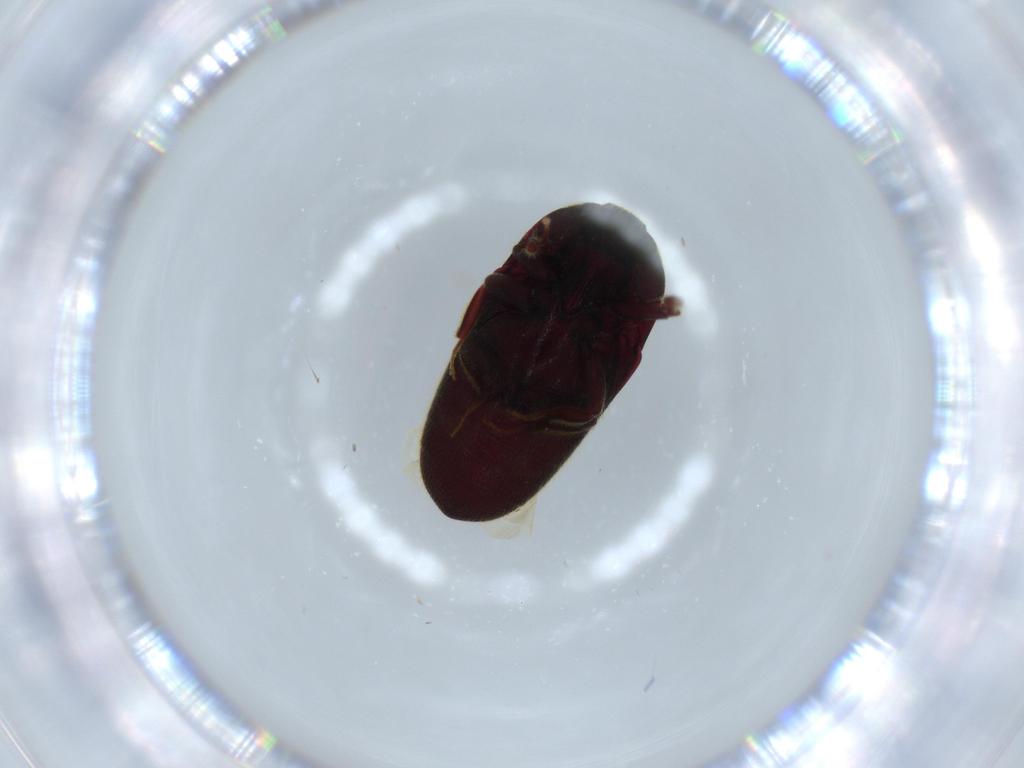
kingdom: Animalia
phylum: Arthropoda
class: Insecta
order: Coleoptera
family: Throscidae
